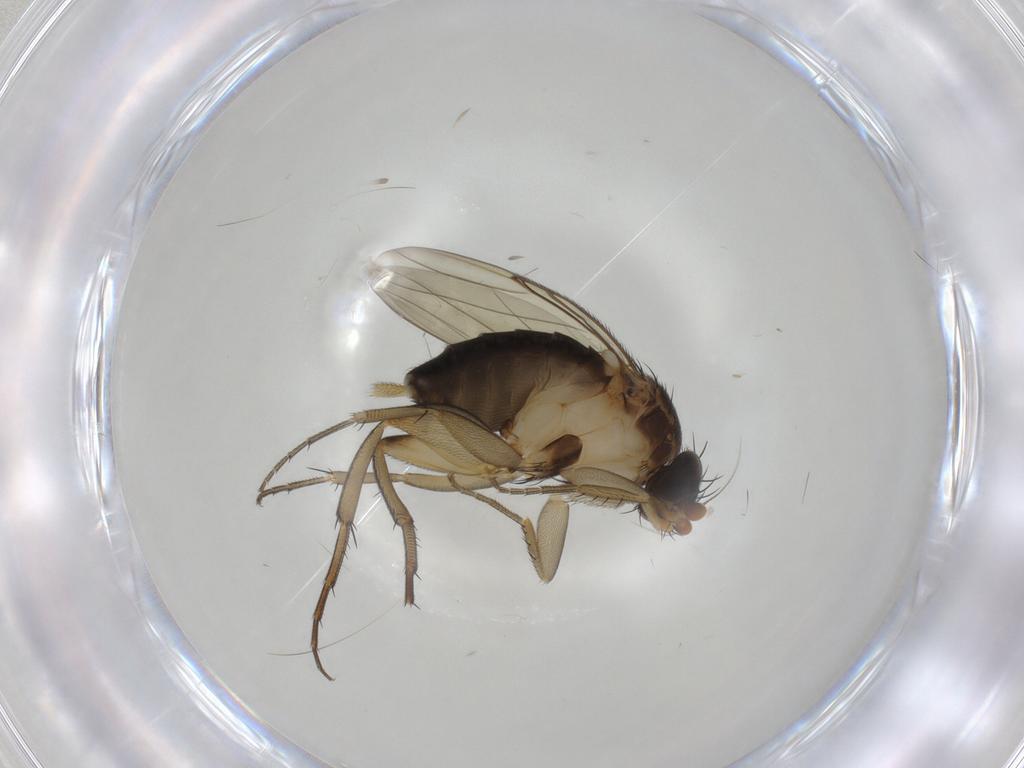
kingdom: Animalia
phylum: Arthropoda
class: Insecta
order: Diptera
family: Phoridae
